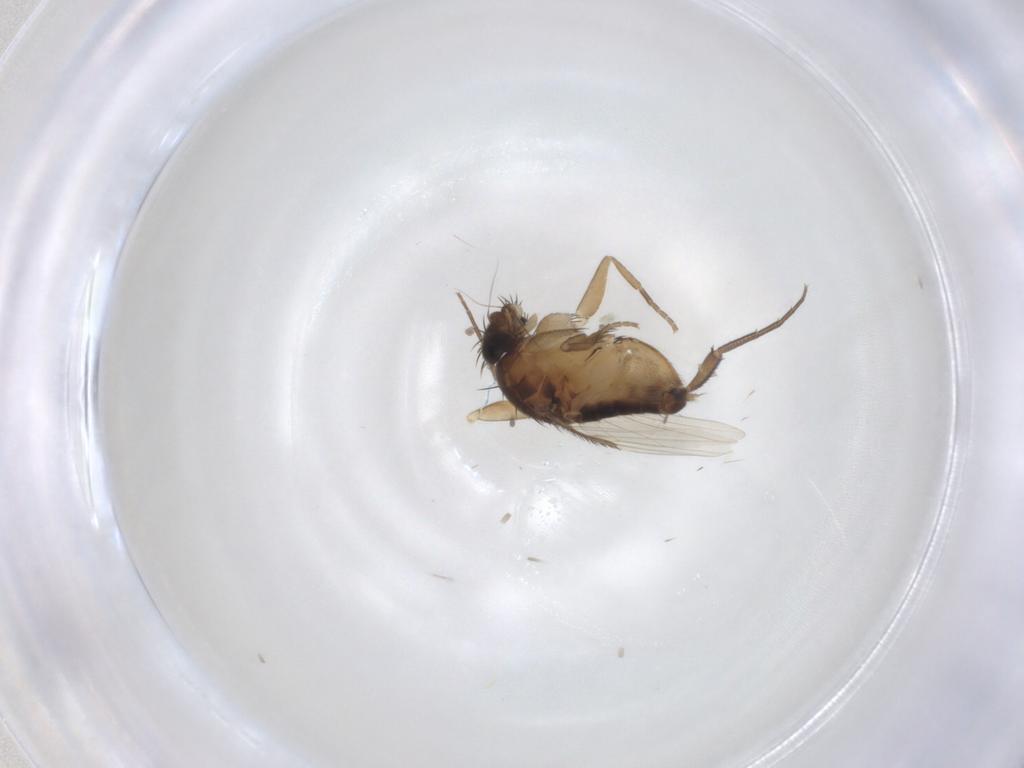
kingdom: Animalia
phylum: Arthropoda
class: Insecta
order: Diptera
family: Phoridae
